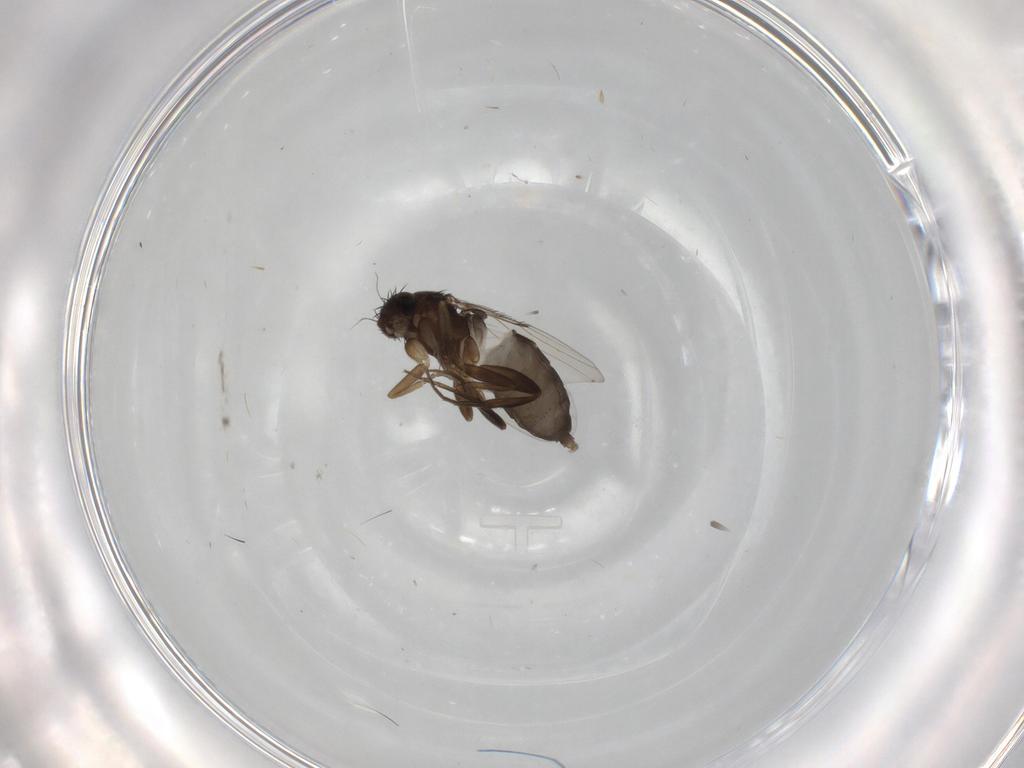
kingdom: Animalia
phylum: Arthropoda
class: Insecta
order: Diptera
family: Phoridae
